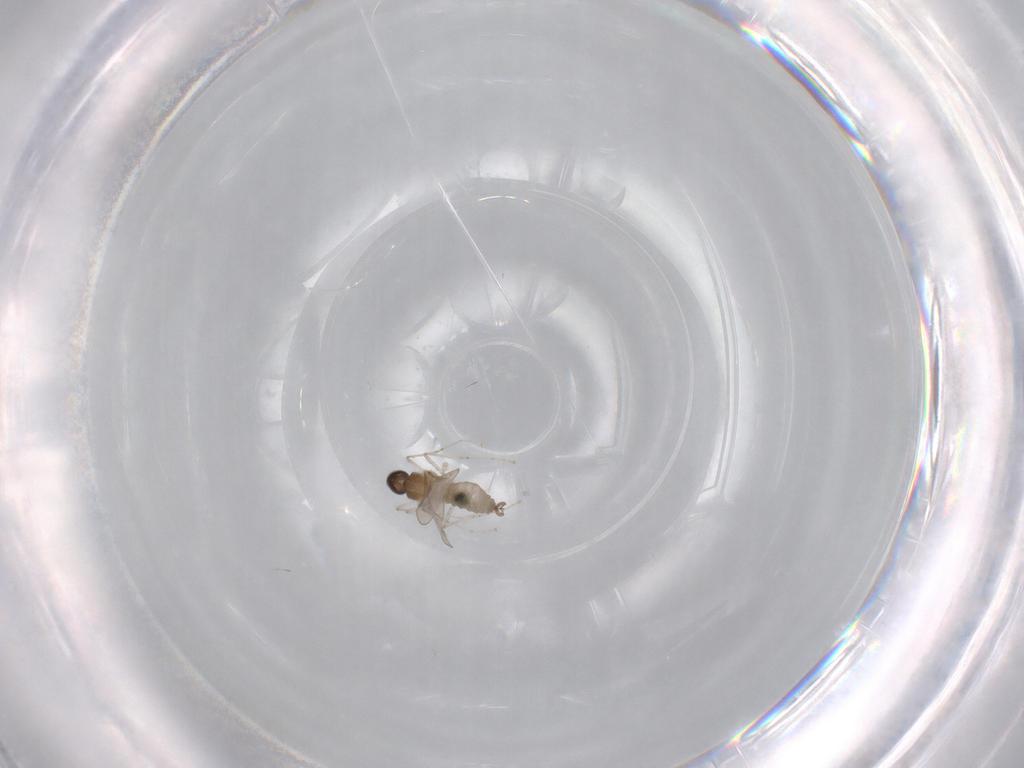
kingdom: Animalia
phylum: Arthropoda
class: Insecta
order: Diptera
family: Cecidomyiidae
